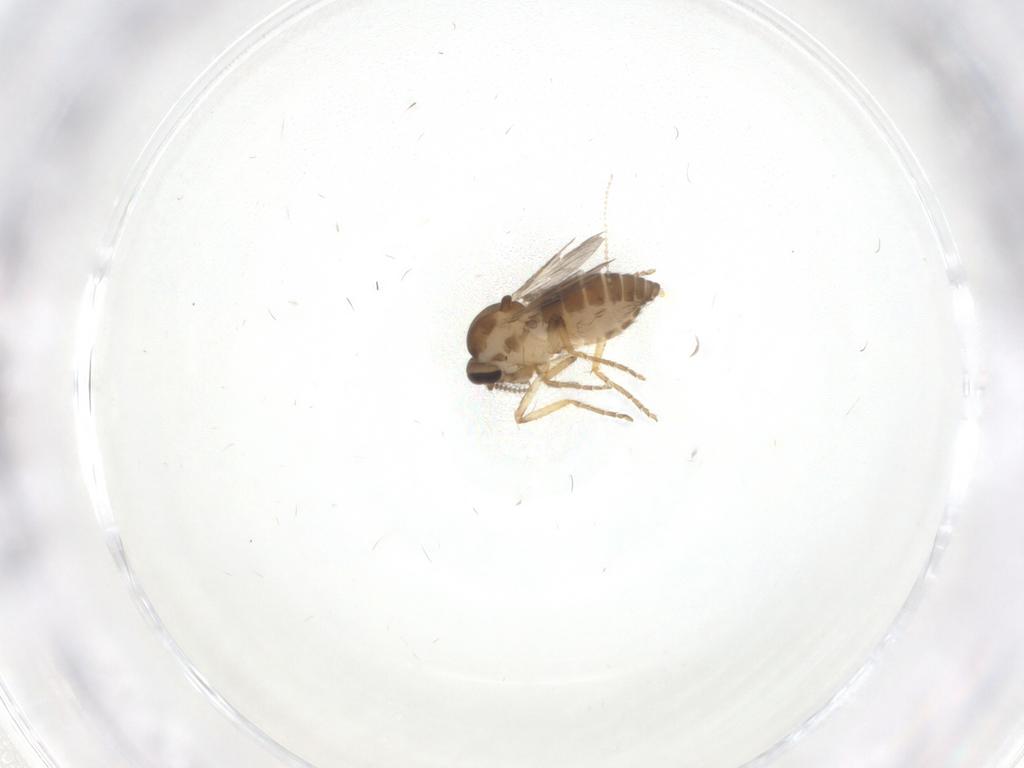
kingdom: Animalia
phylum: Arthropoda
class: Insecta
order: Diptera
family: Ceratopogonidae
